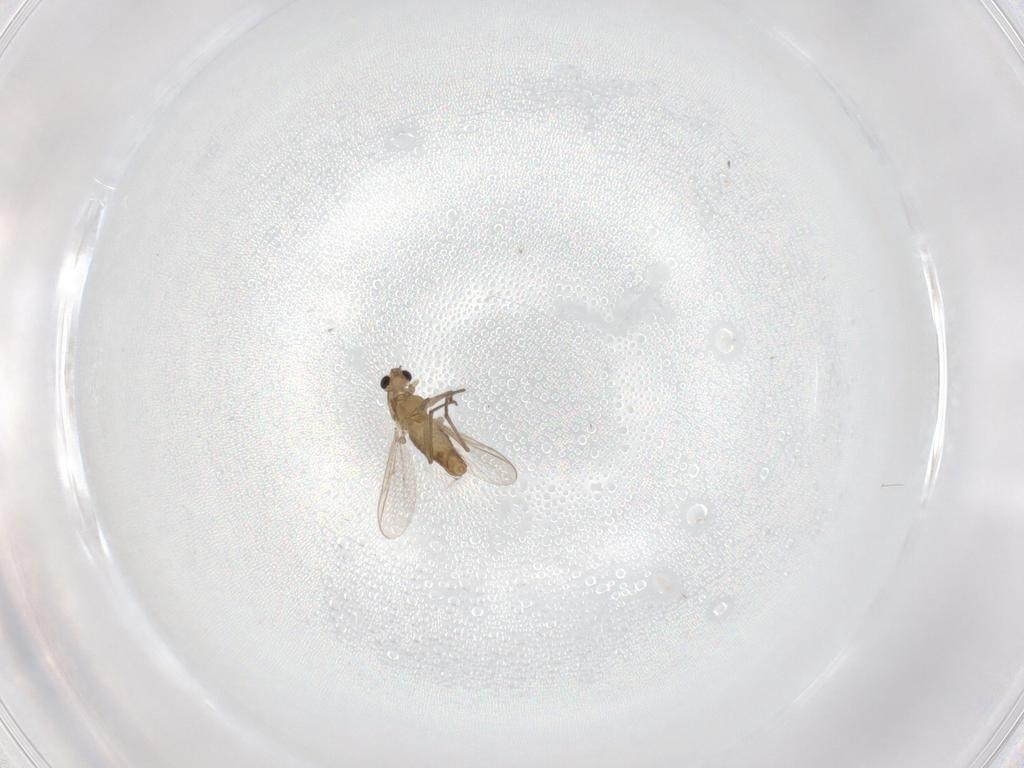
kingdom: Animalia
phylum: Arthropoda
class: Insecta
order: Diptera
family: Chironomidae
